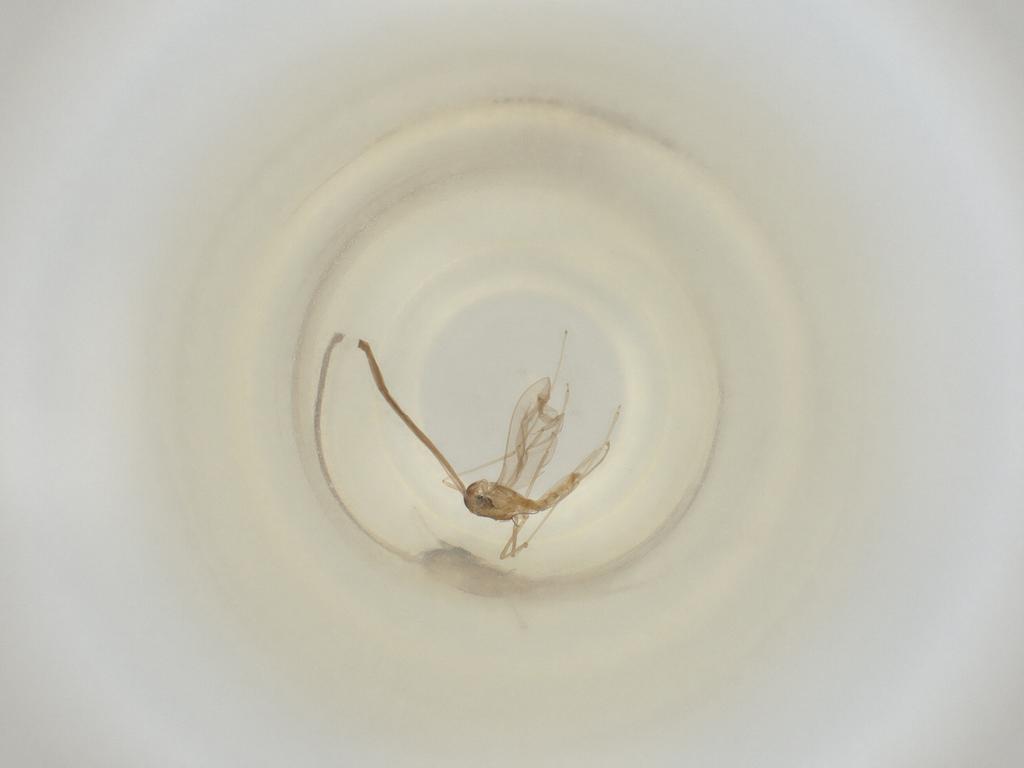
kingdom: Animalia
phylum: Arthropoda
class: Insecta
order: Diptera
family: Cecidomyiidae
